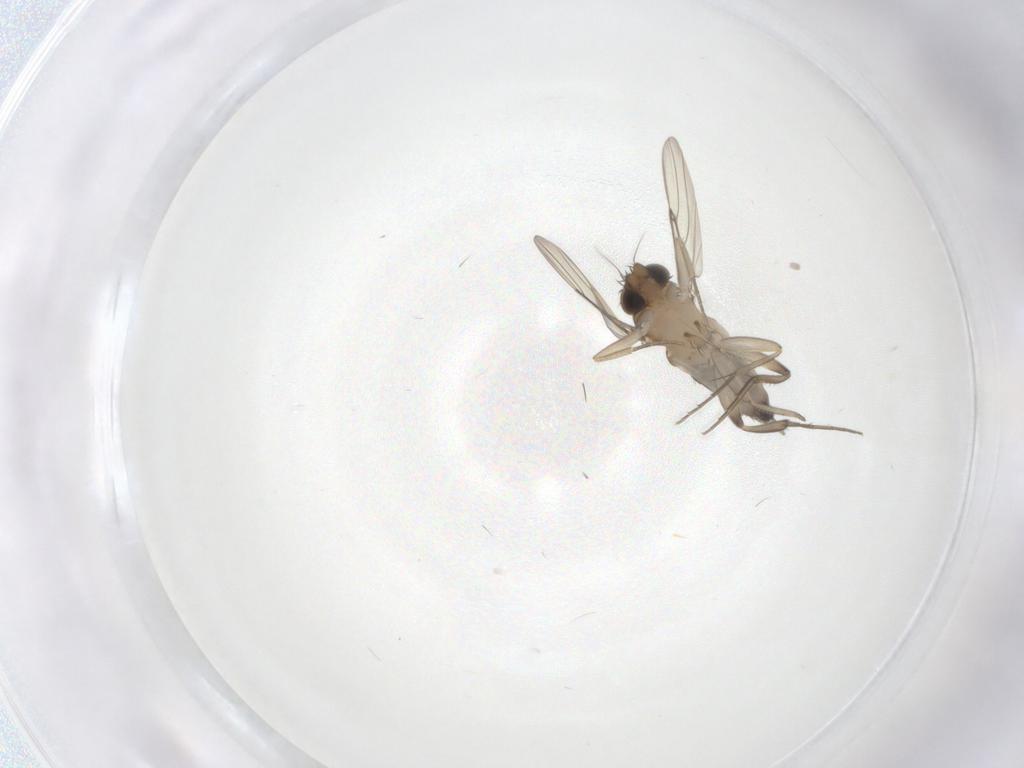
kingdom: Animalia
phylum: Arthropoda
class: Insecta
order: Diptera
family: Phoridae
